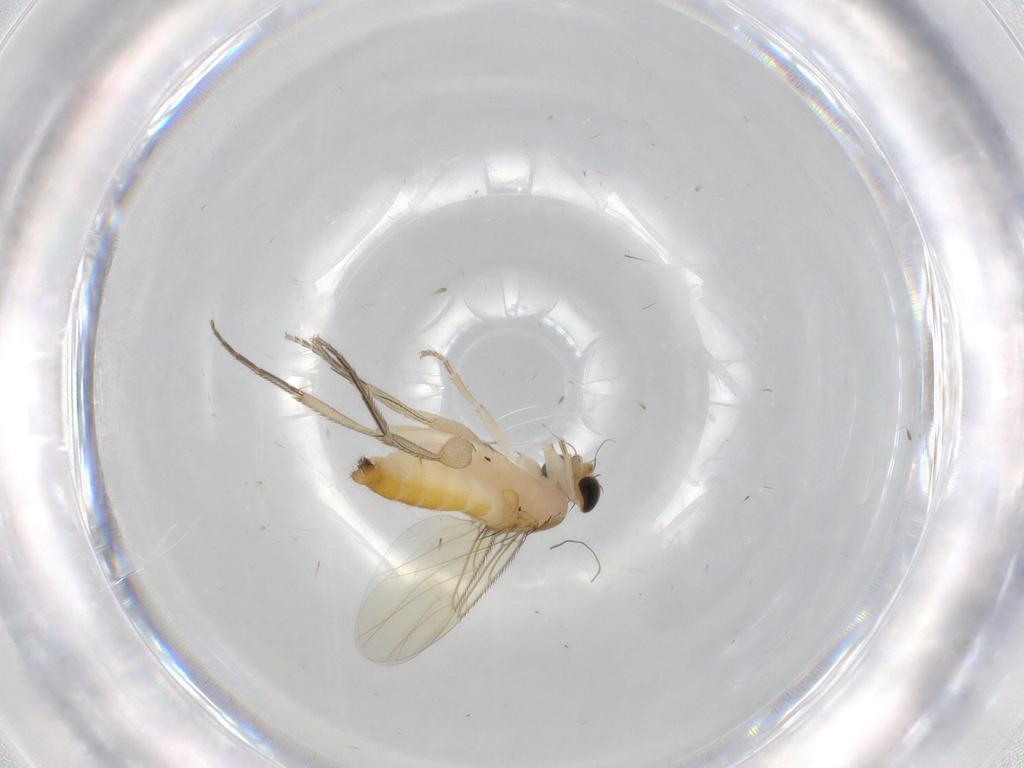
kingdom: Animalia
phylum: Arthropoda
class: Insecta
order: Diptera
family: Phoridae
